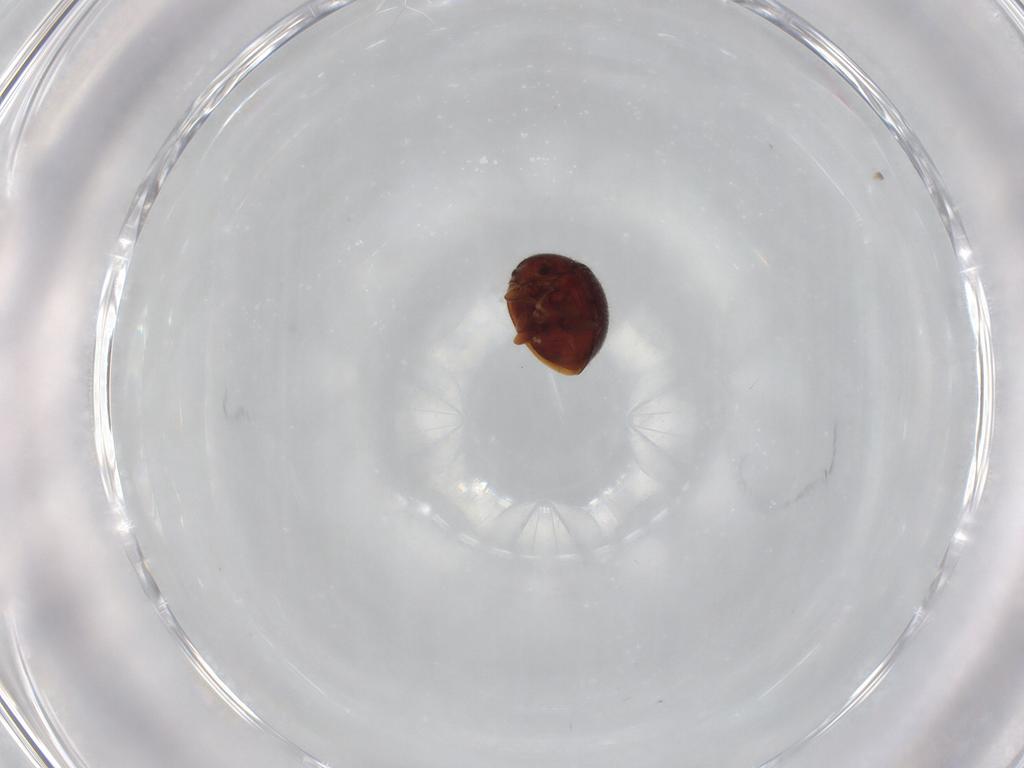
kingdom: Animalia
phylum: Arthropoda
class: Insecta
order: Coleoptera
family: Coccinellidae
